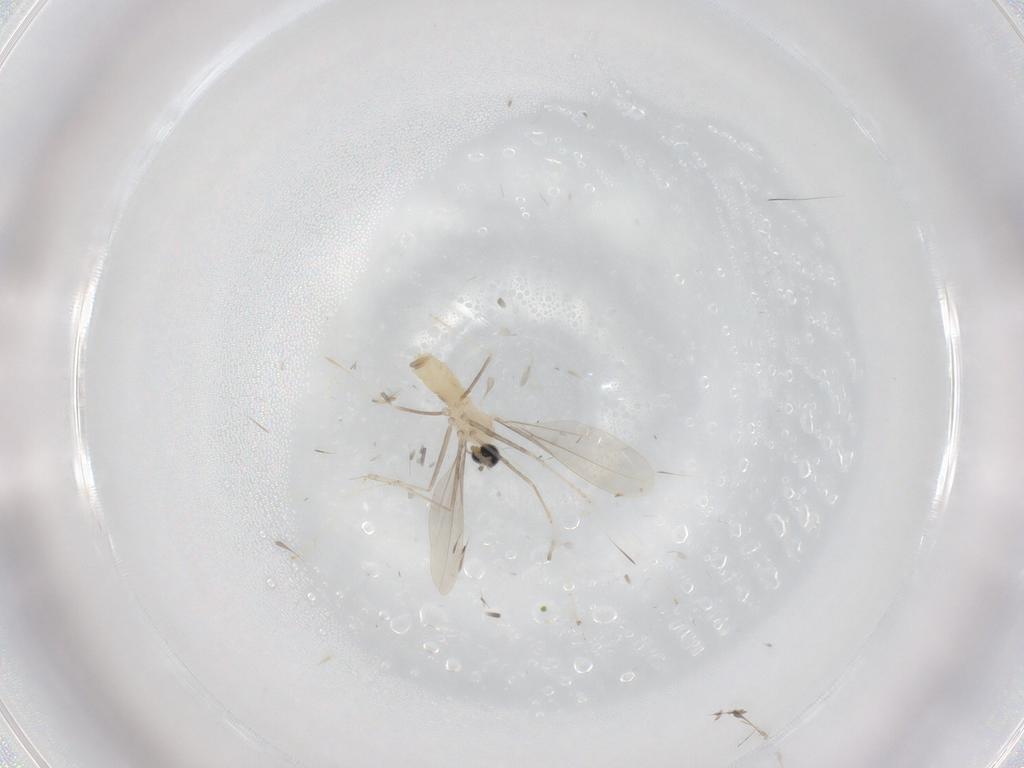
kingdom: Animalia
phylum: Arthropoda
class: Insecta
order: Diptera
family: Cecidomyiidae
